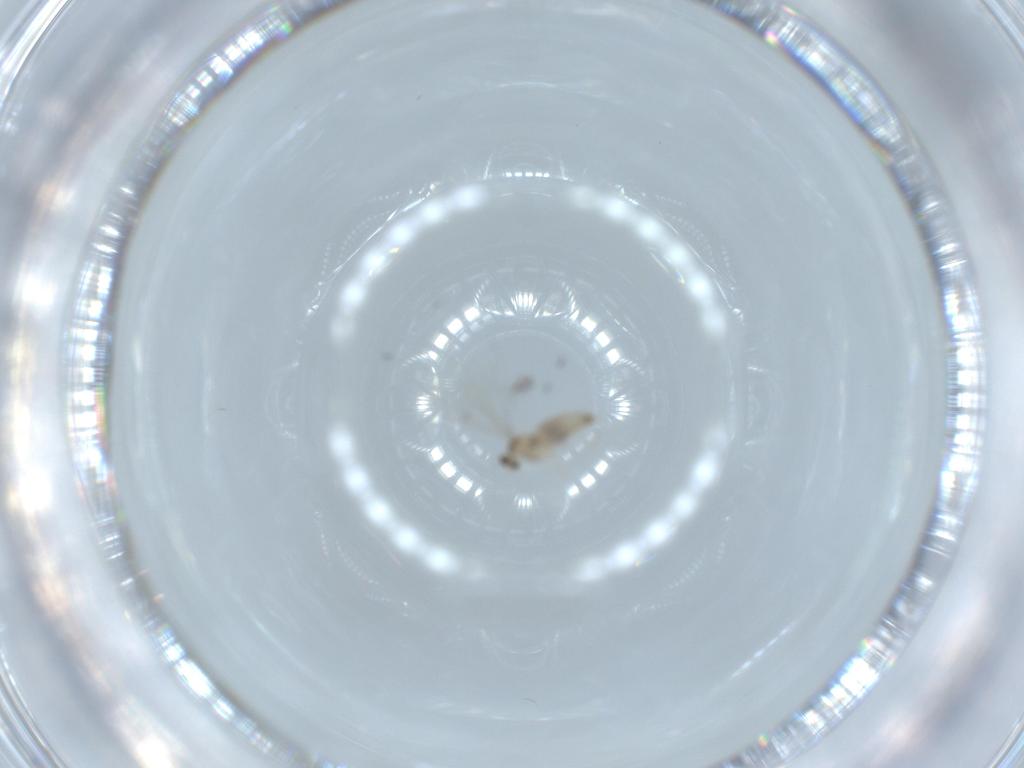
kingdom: Animalia
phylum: Arthropoda
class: Insecta
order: Diptera
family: Cecidomyiidae
